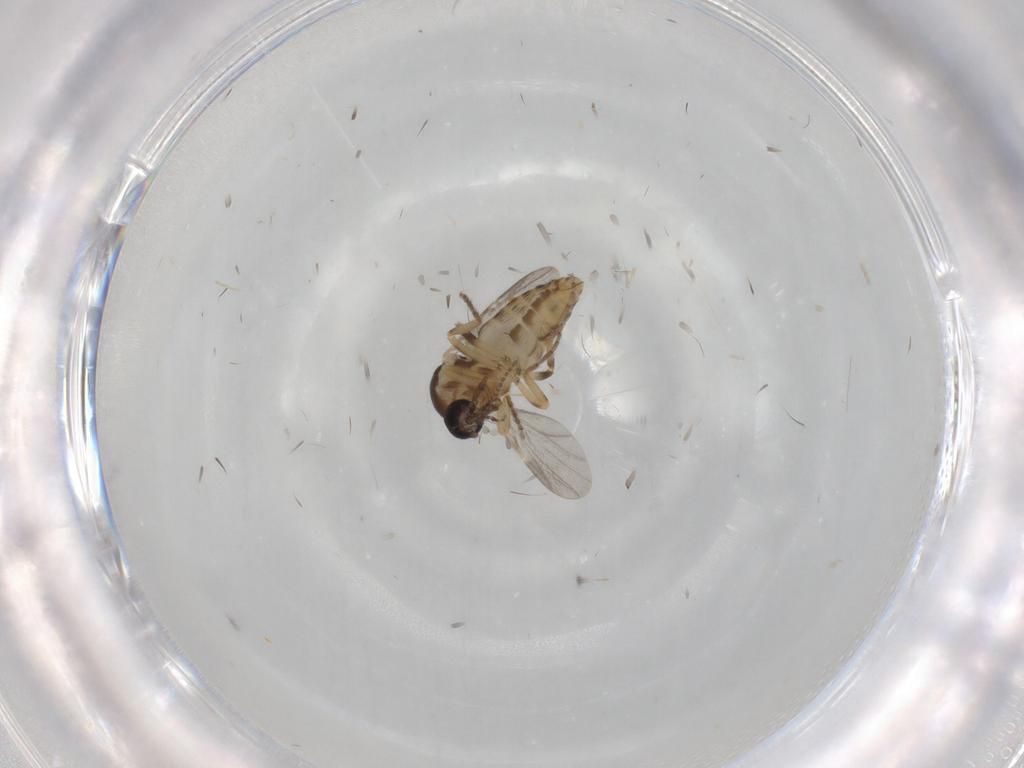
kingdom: Animalia
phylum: Arthropoda
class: Insecta
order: Diptera
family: Ceratopogonidae
